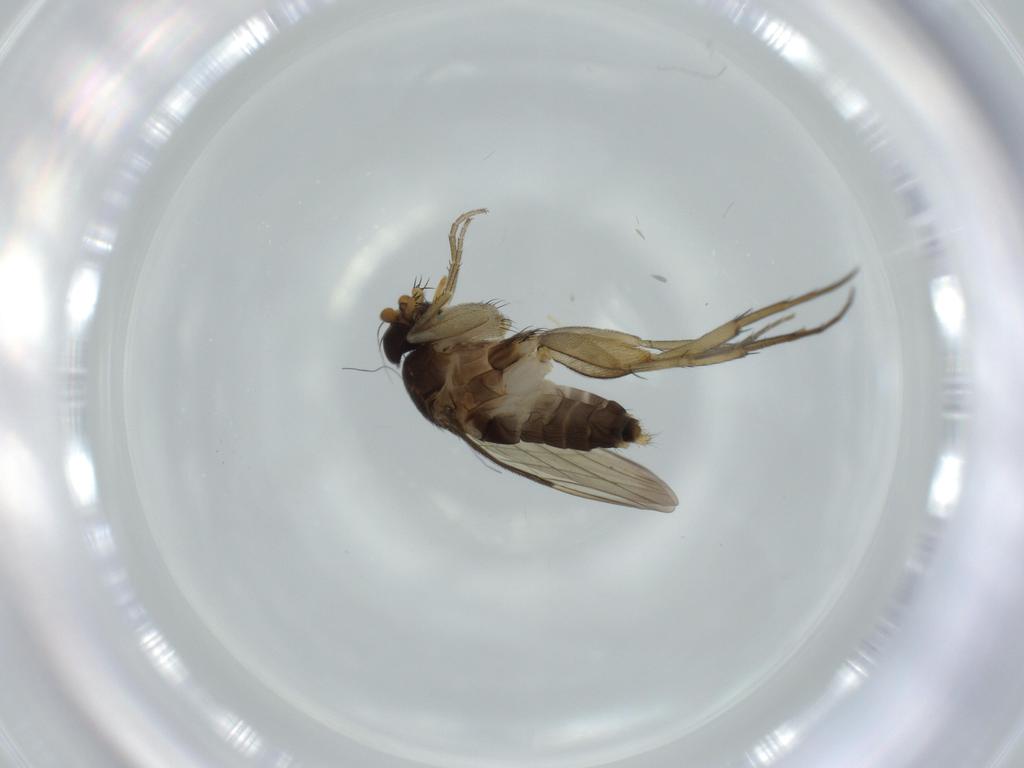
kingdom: Animalia
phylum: Arthropoda
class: Insecta
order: Diptera
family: Phoridae
